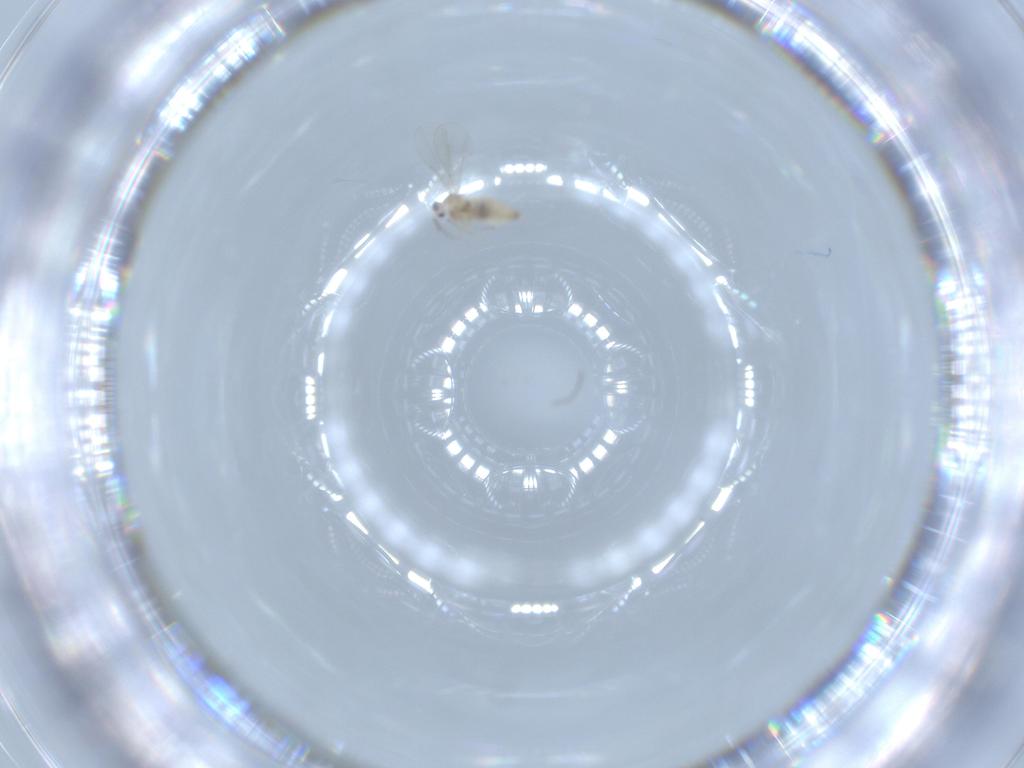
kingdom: Animalia
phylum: Arthropoda
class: Insecta
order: Diptera
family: Cecidomyiidae
